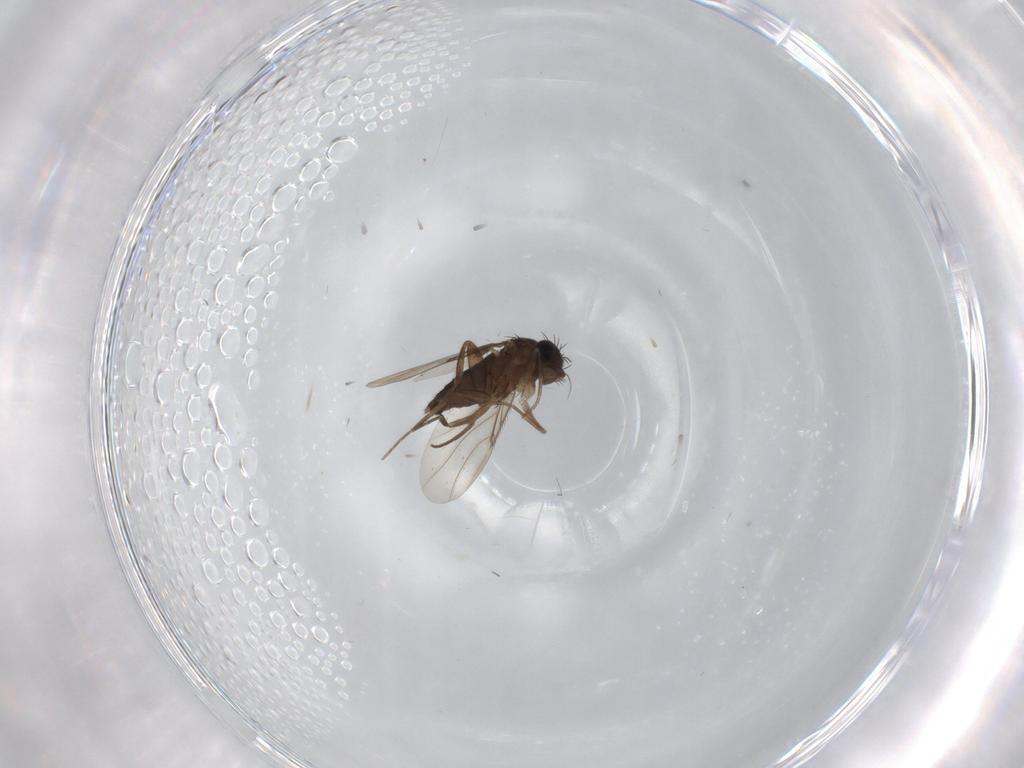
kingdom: Animalia
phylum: Arthropoda
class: Insecta
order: Diptera
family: Phoridae
